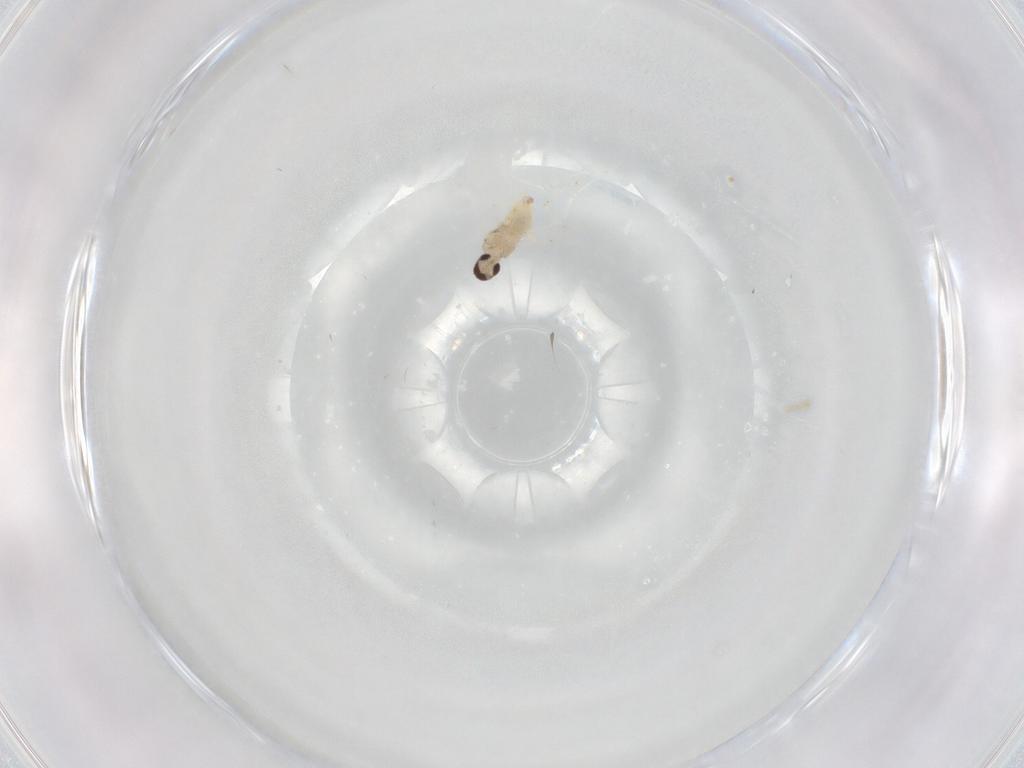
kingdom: Animalia
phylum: Arthropoda
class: Insecta
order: Diptera
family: Cecidomyiidae
